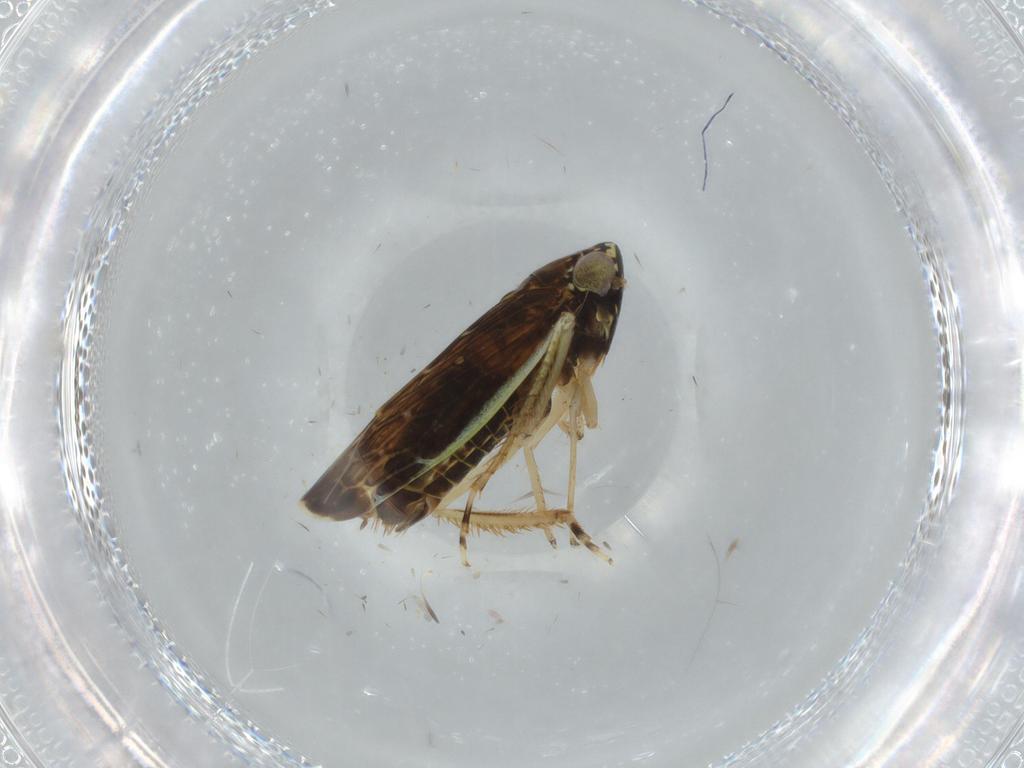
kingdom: Animalia
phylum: Arthropoda
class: Insecta
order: Hemiptera
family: Cicadellidae
